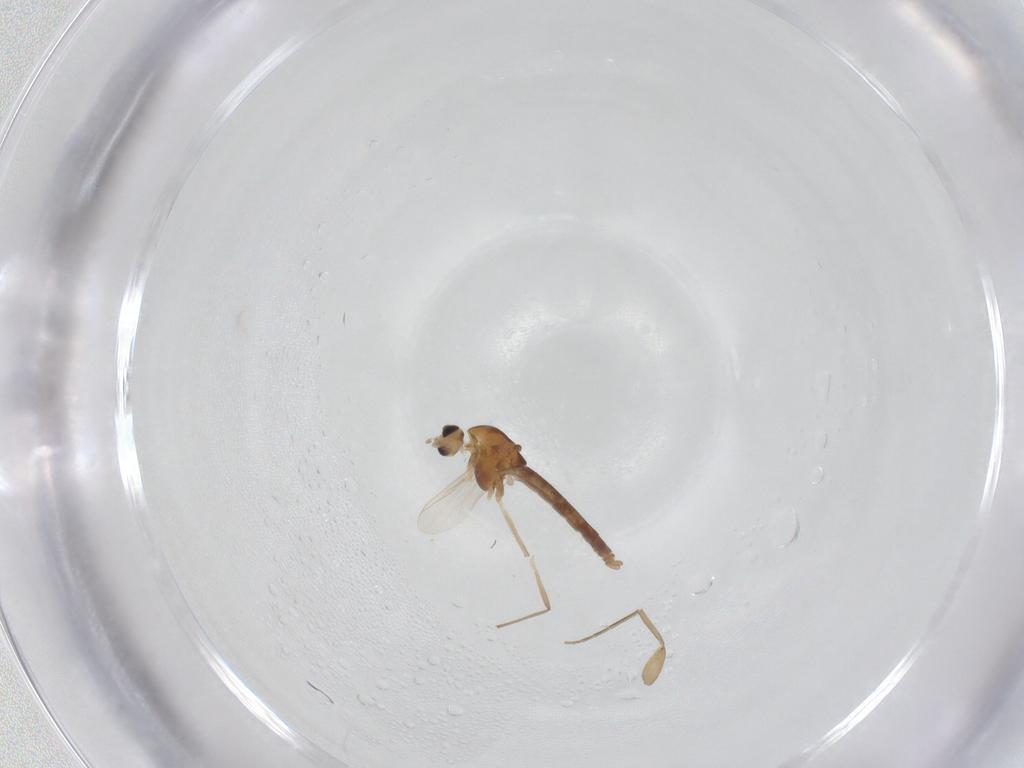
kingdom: Animalia
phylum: Arthropoda
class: Insecta
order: Diptera
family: Chironomidae
